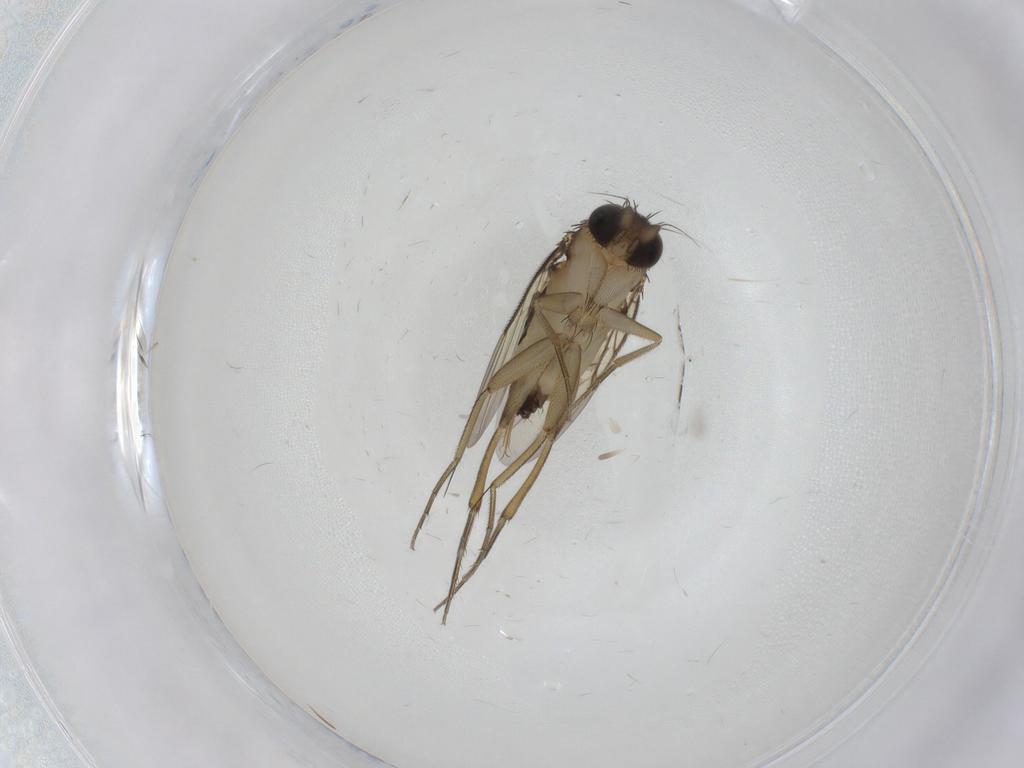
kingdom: Animalia
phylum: Arthropoda
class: Insecta
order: Diptera
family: Phoridae
